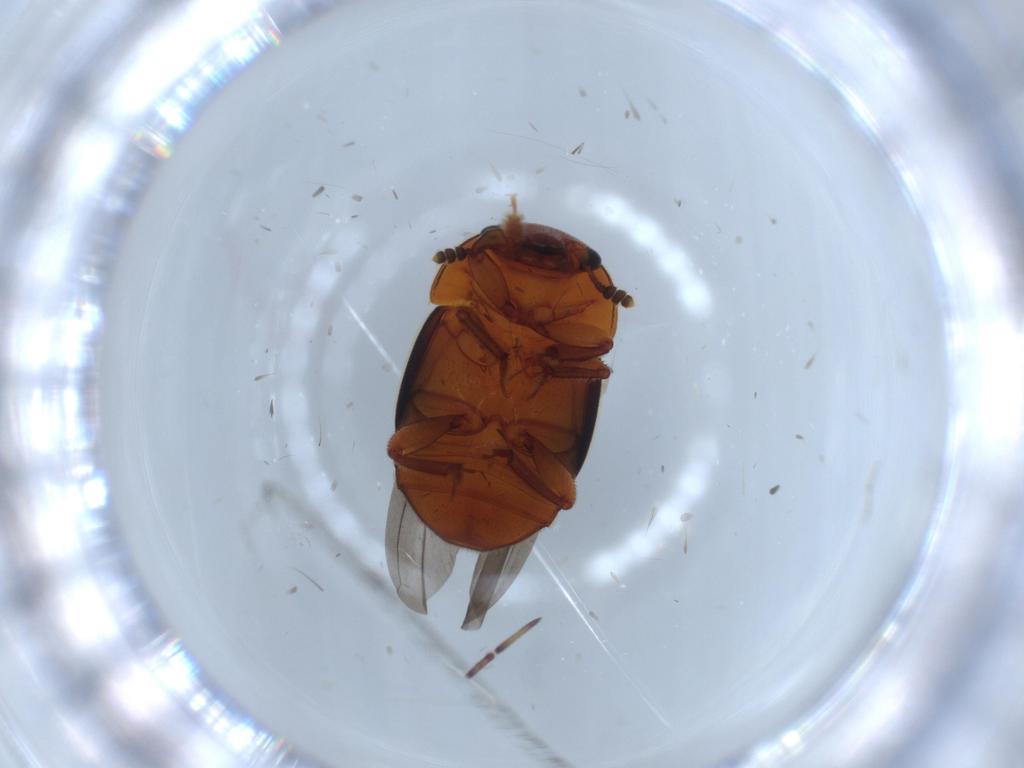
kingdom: Animalia
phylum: Arthropoda
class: Insecta
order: Coleoptera
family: Nitidulidae
